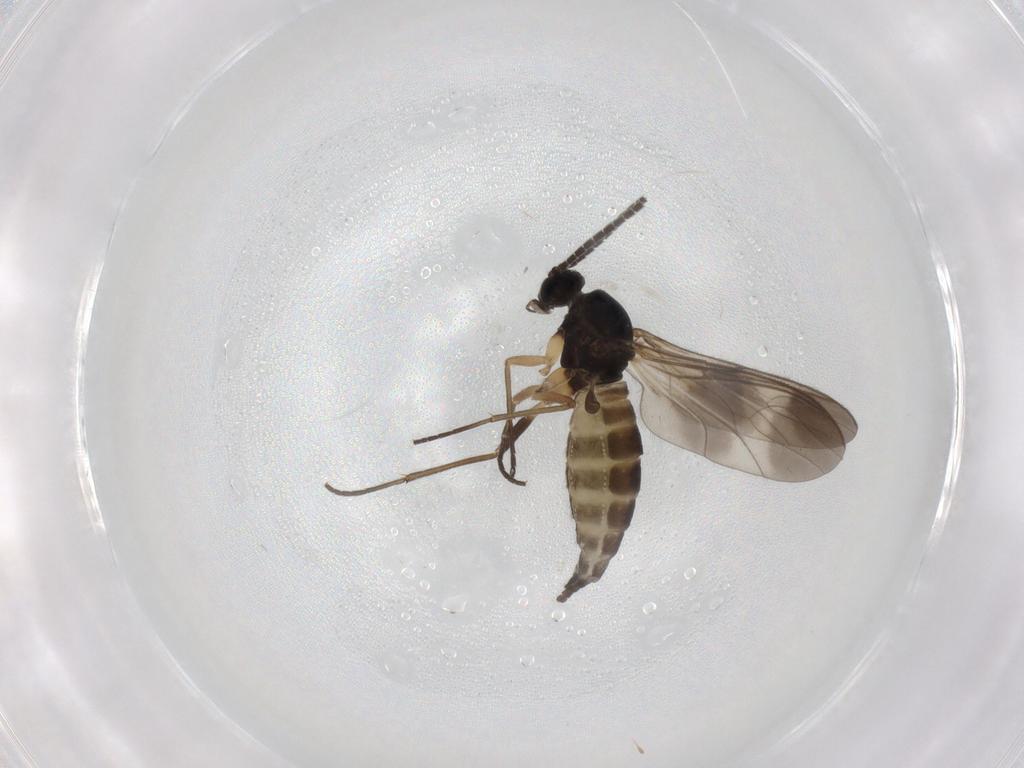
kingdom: Animalia
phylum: Arthropoda
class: Insecta
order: Diptera
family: Sciaridae
